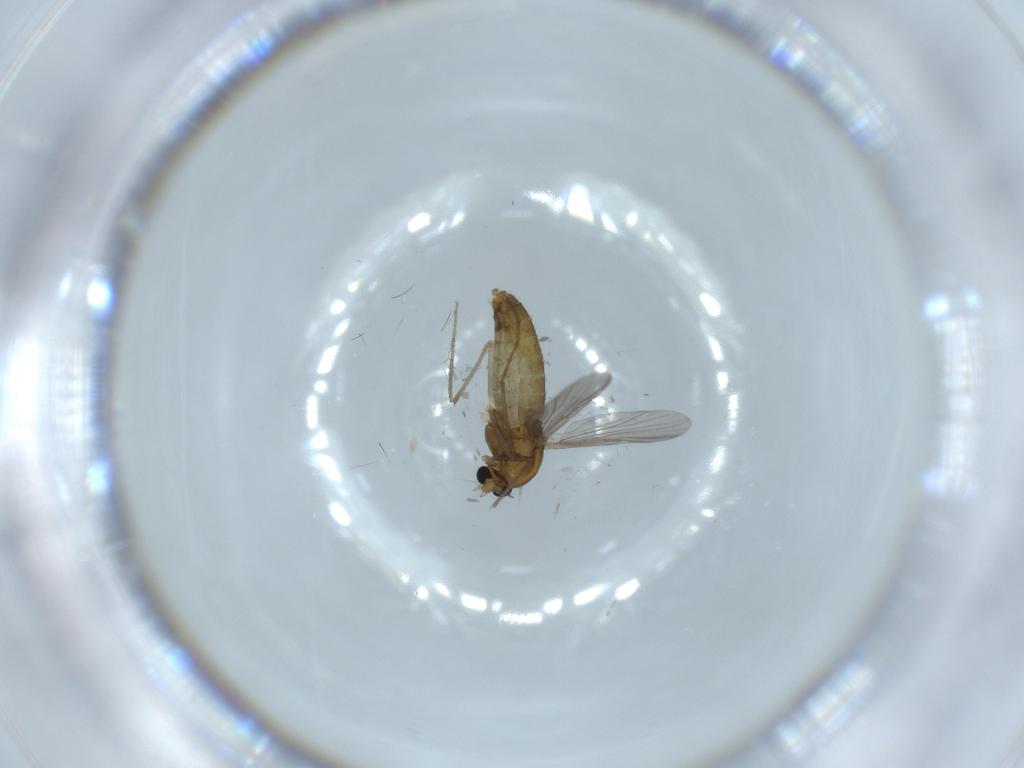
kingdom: Animalia
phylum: Arthropoda
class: Insecta
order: Diptera
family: Chironomidae
